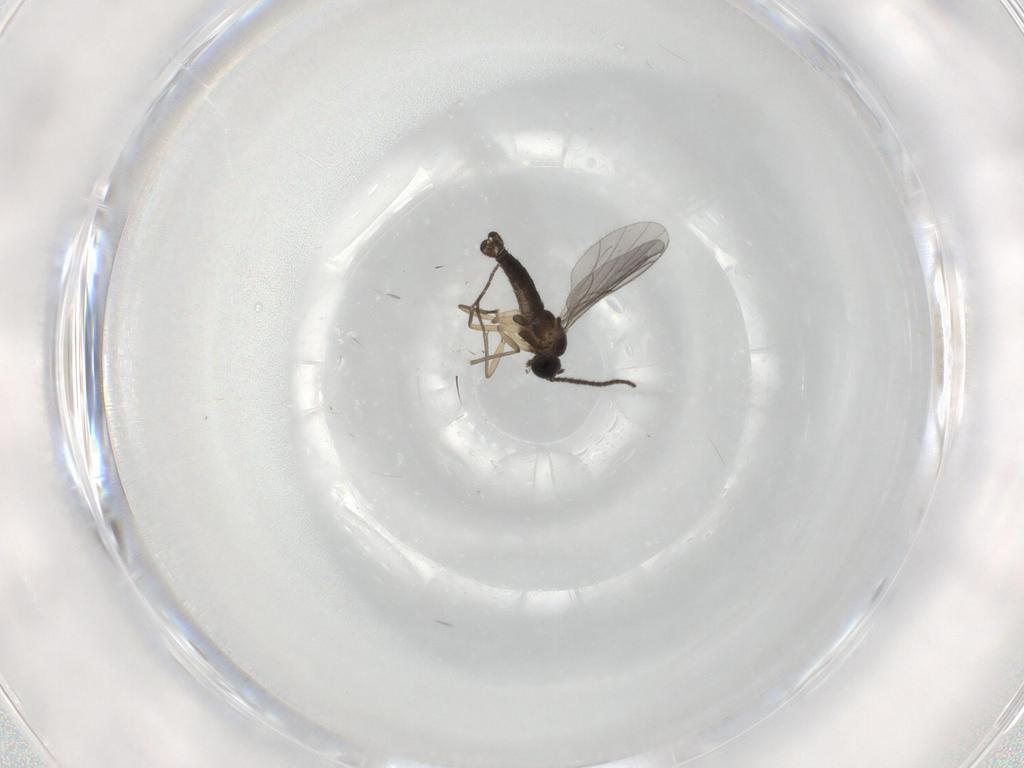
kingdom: Animalia
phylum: Arthropoda
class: Insecta
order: Diptera
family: Sciaridae
